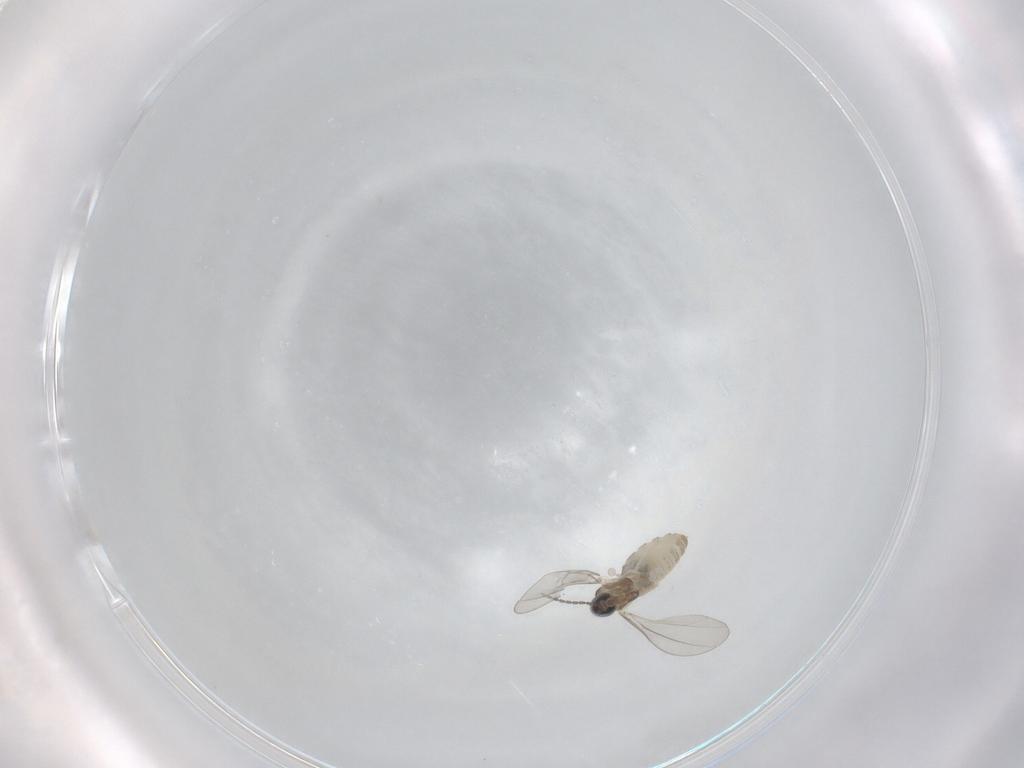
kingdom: Animalia
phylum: Arthropoda
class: Insecta
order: Diptera
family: Cecidomyiidae
